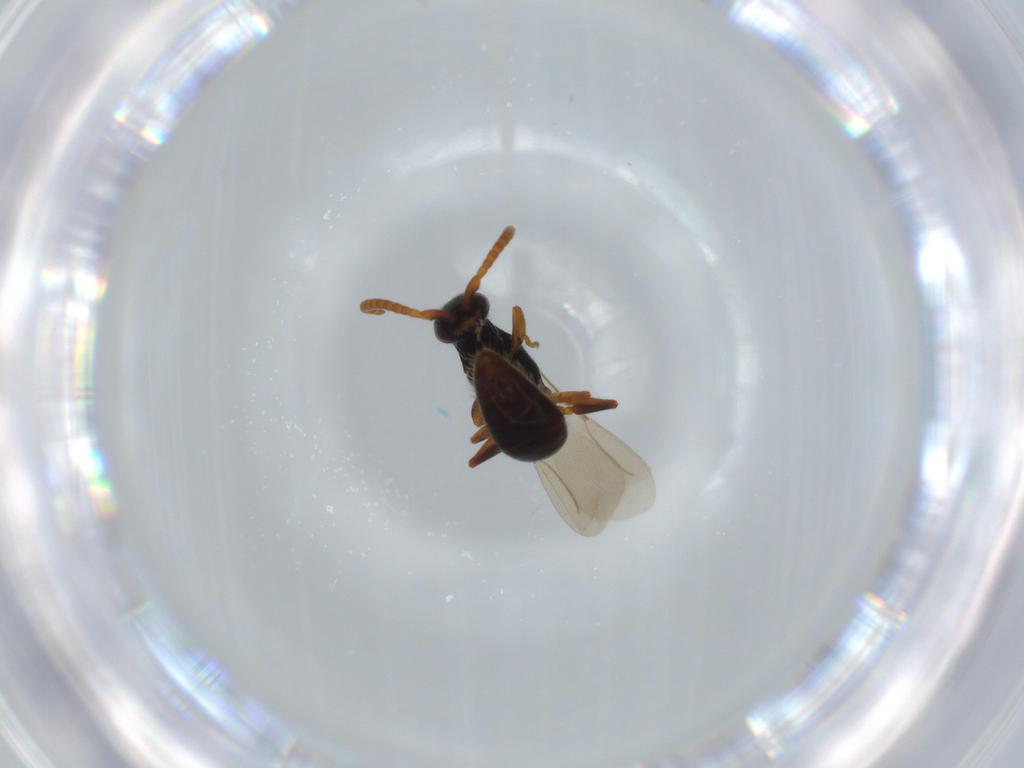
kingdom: Animalia
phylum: Arthropoda
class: Insecta
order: Hymenoptera
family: Bethylidae
